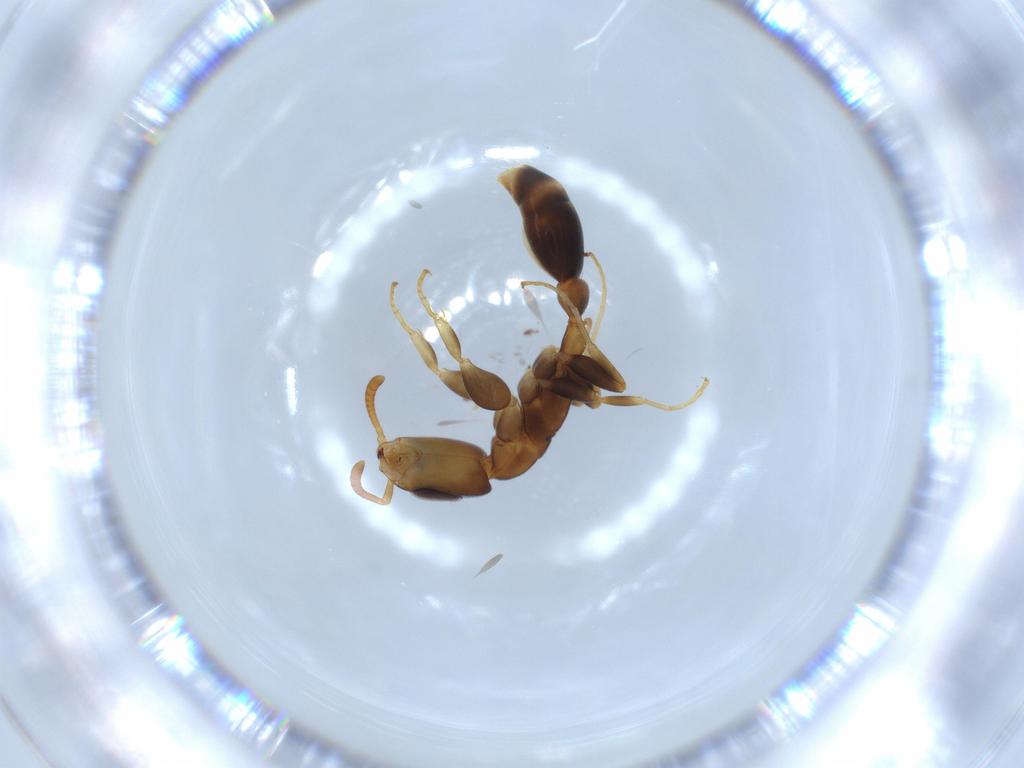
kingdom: Animalia
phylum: Arthropoda
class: Insecta
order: Hymenoptera
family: Formicidae
